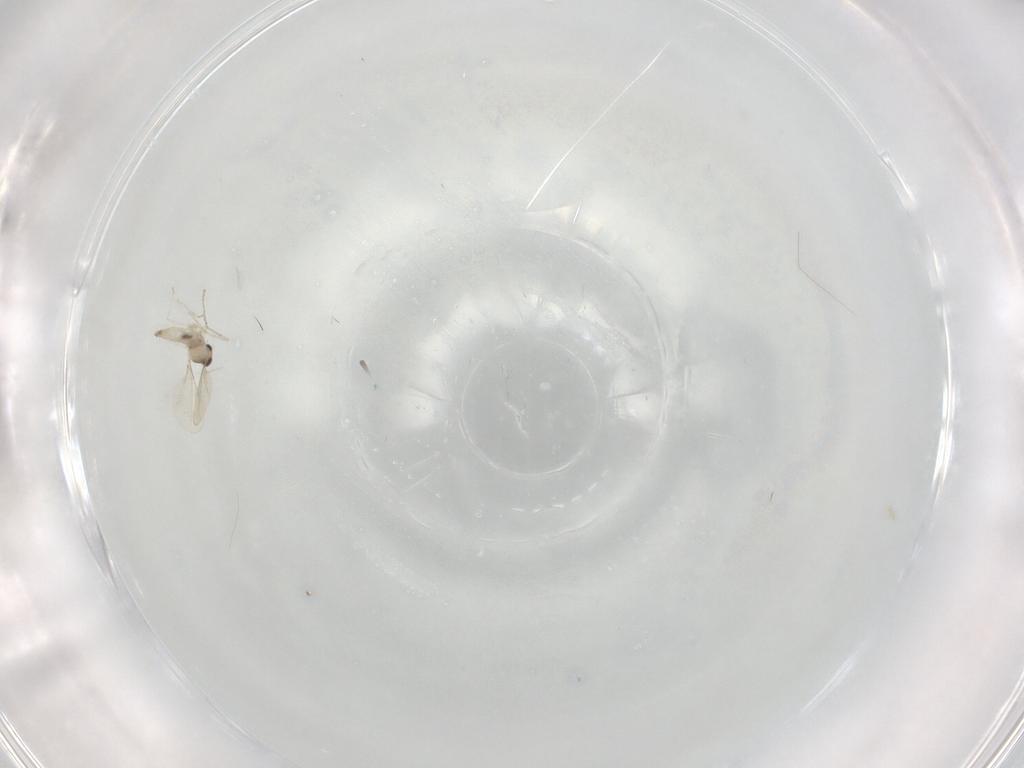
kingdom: Animalia
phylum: Arthropoda
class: Insecta
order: Diptera
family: Cecidomyiidae
